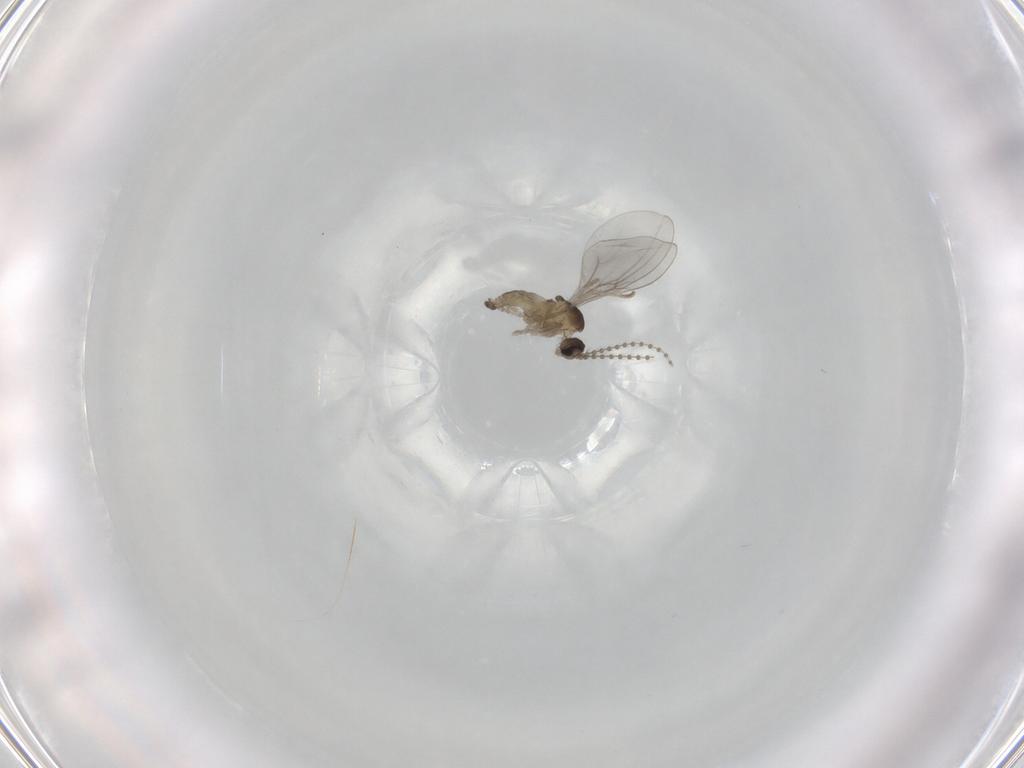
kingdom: Animalia
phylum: Arthropoda
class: Insecta
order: Diptera
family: Cecidomyiidae
